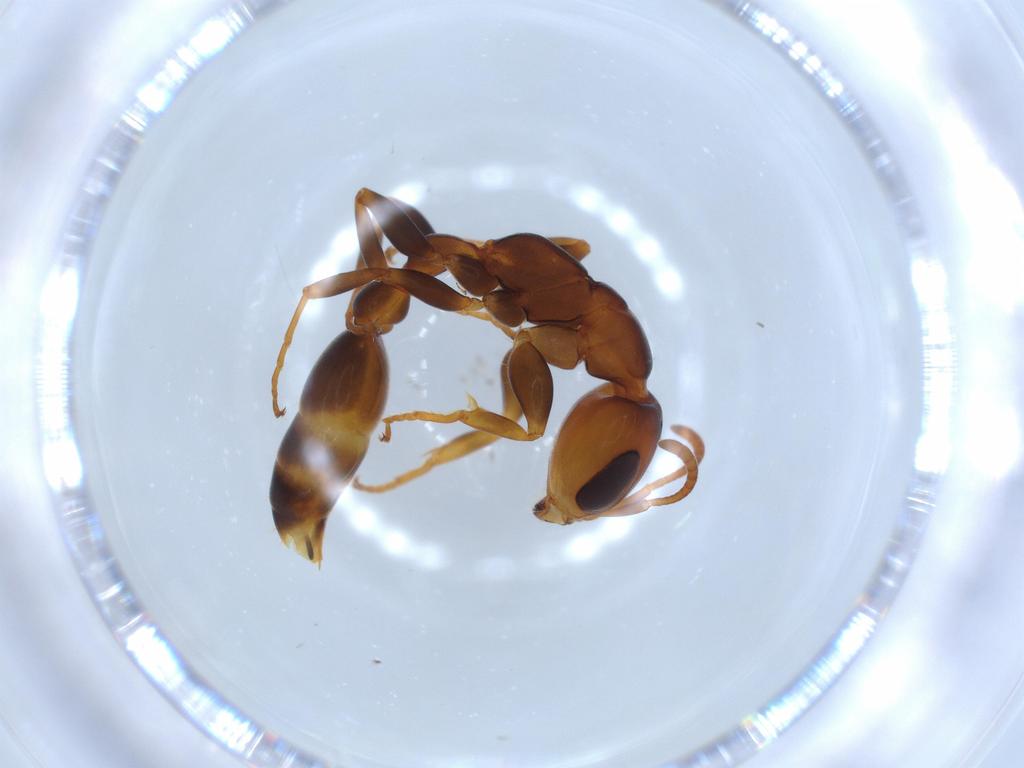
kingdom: Animalia
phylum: Arthropoda
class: Insecta
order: Hymenoptera
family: Formicidae
